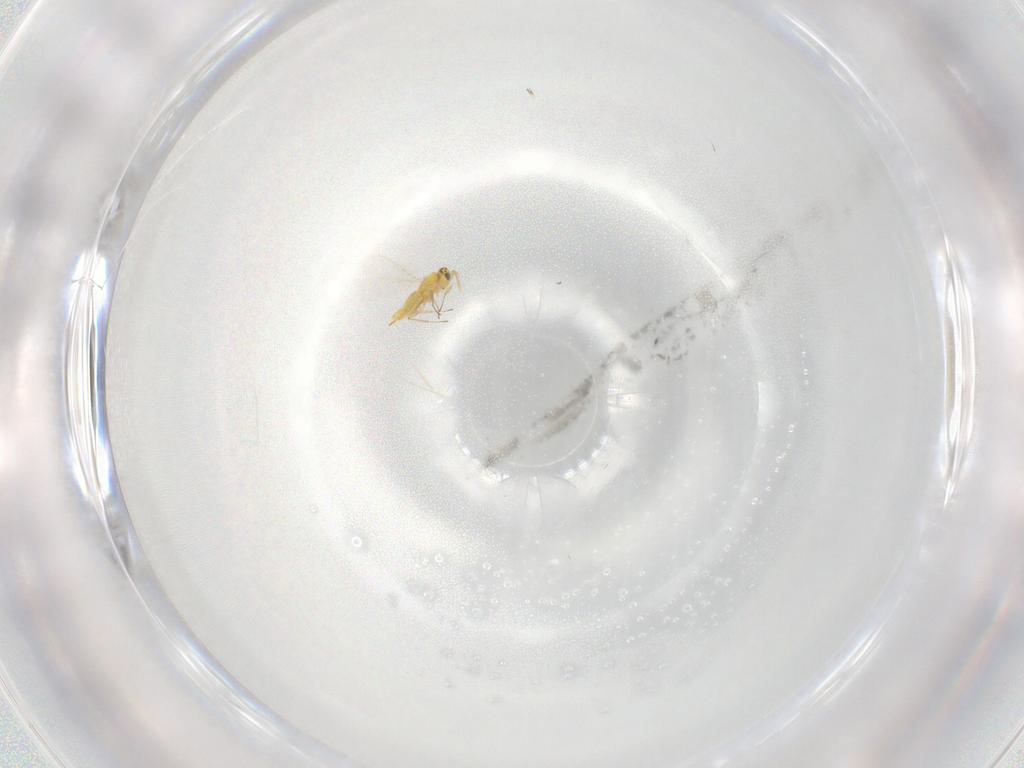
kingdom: Animalia
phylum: Arthropoda
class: Insecta
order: Hymenoptera
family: Aphelinidae
